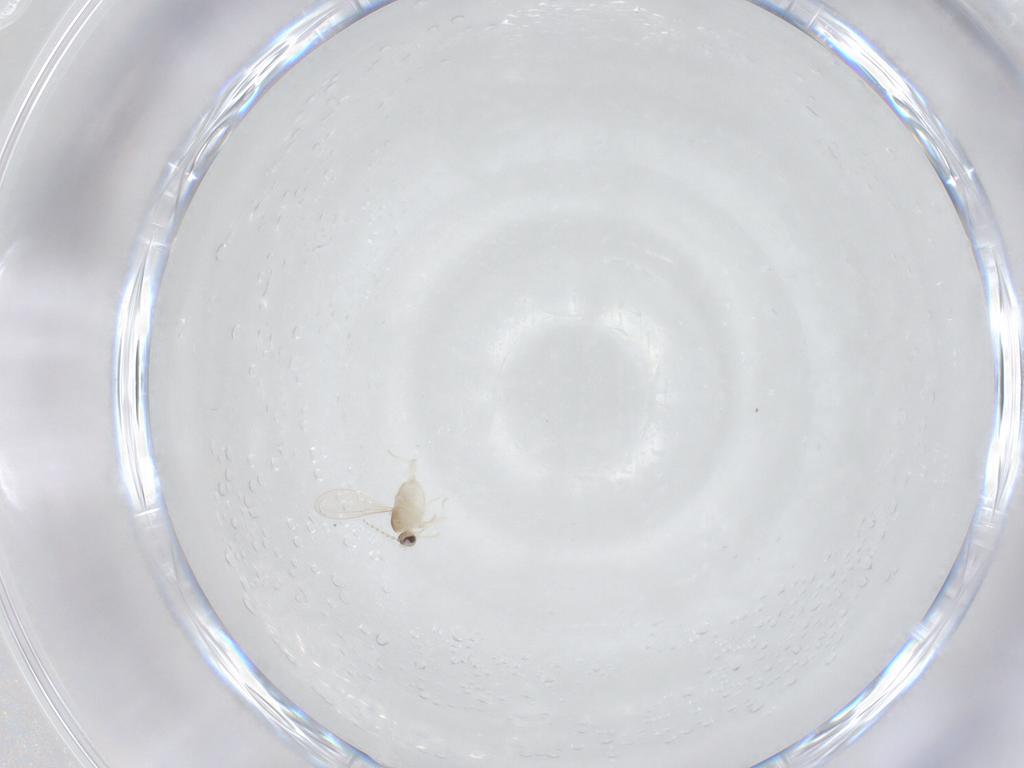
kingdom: Animalia
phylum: Arthropoda
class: Insecta
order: Diptera
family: Cecidomyiidae
